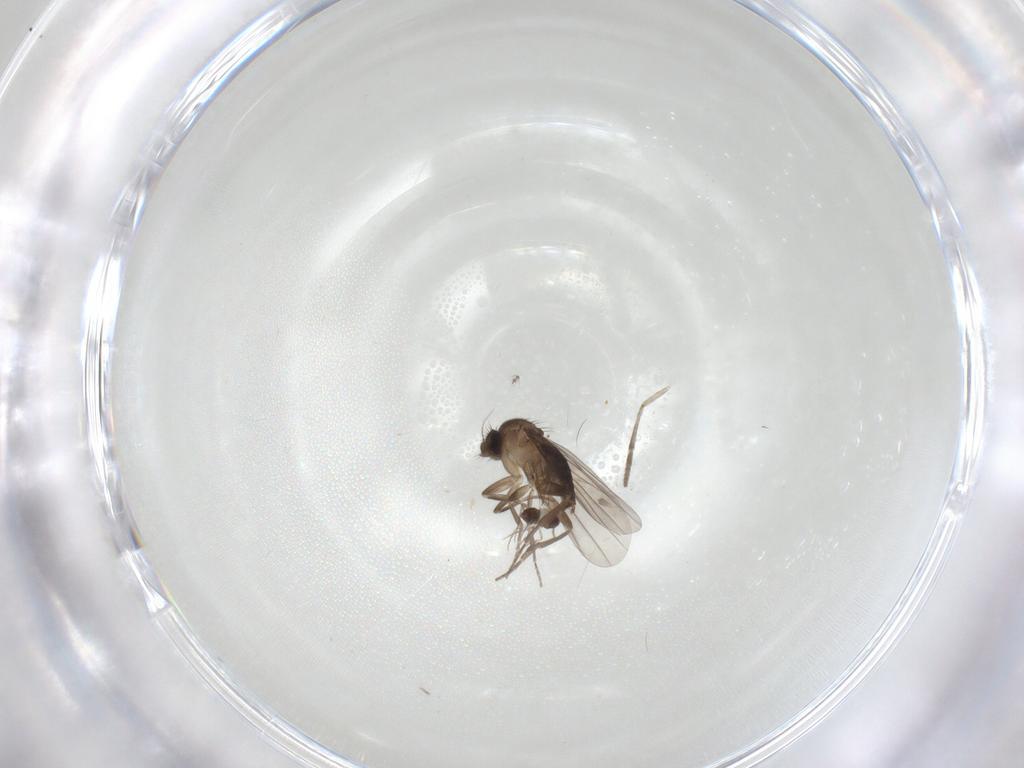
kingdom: Animalia
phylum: Arthropoda
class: Insecta
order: Diptera
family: Psychodidae
